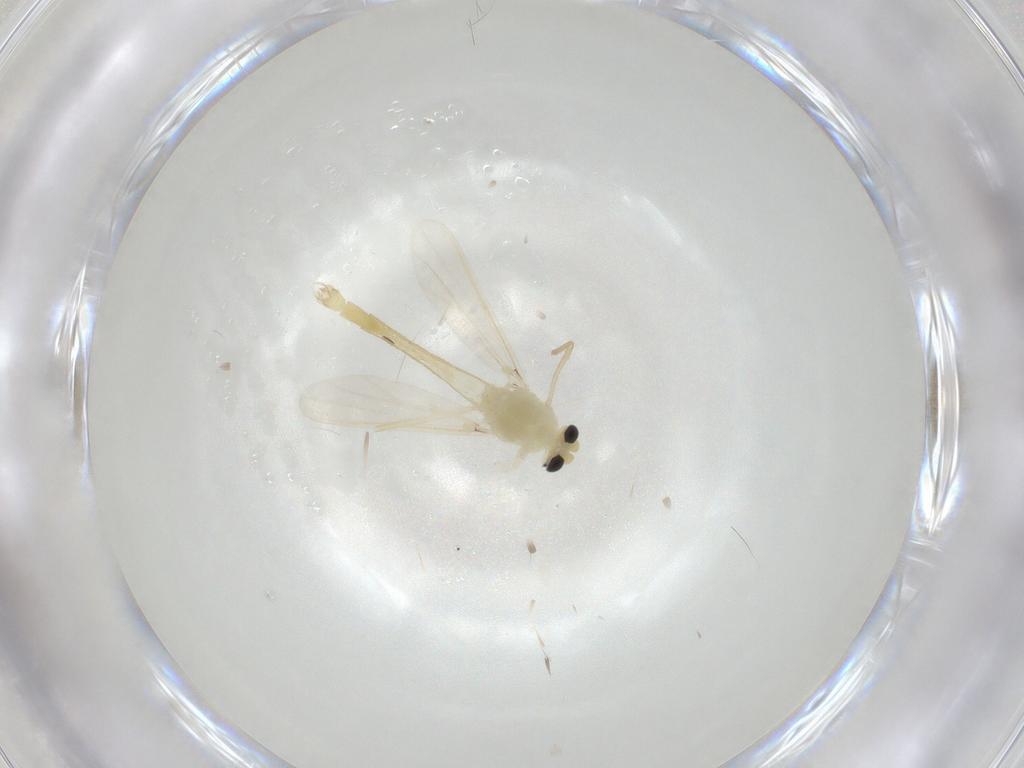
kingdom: Animalia
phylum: Arthropoda
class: Insecta
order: Diptera
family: Chironomidae
